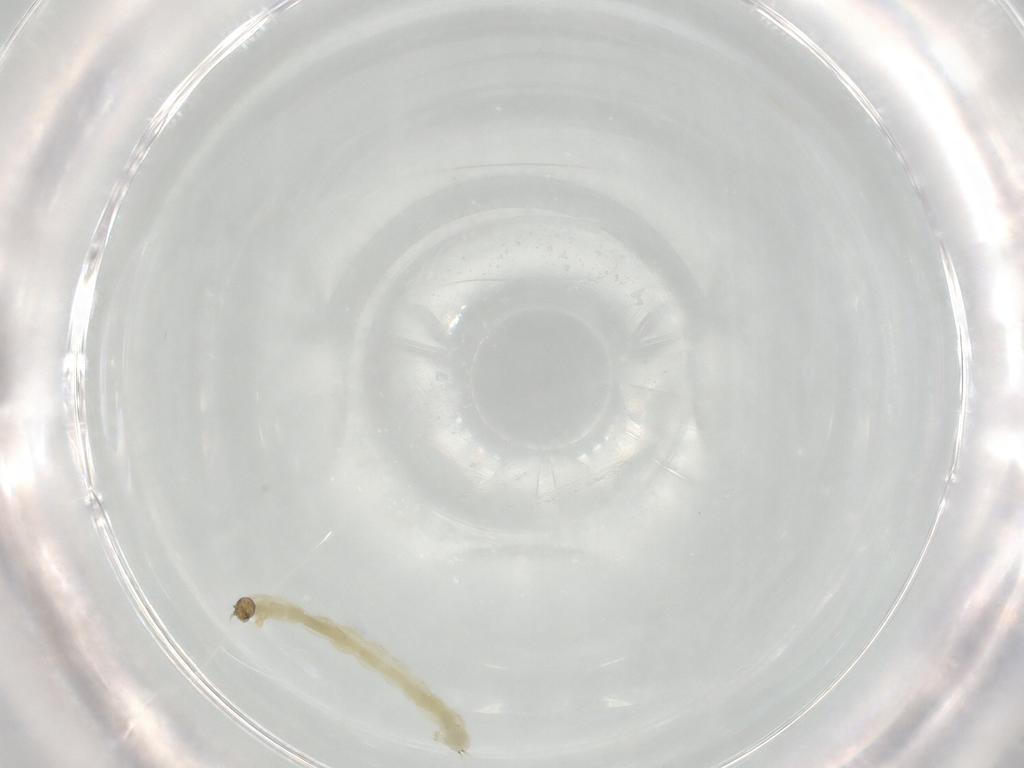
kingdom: Animalia
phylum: Arthropoda
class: Insecta
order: Diptera
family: Chironomidae
